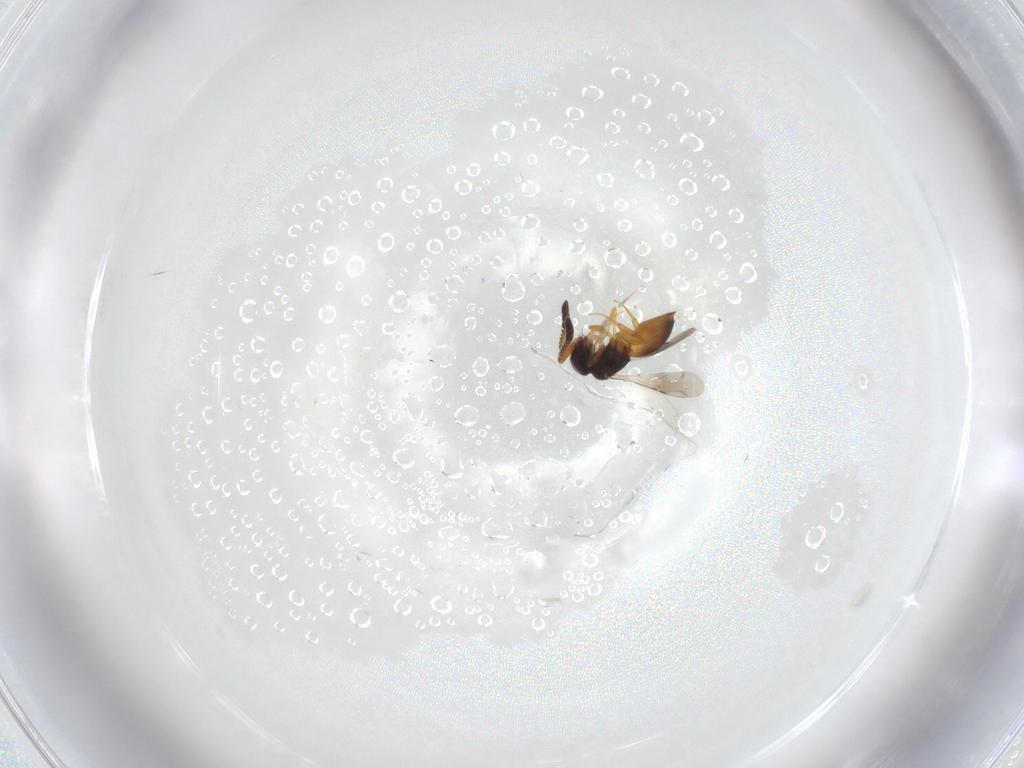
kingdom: Animalia
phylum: Arthropoda
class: Insecta
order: Hymenoptera
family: Ceraphronidae
